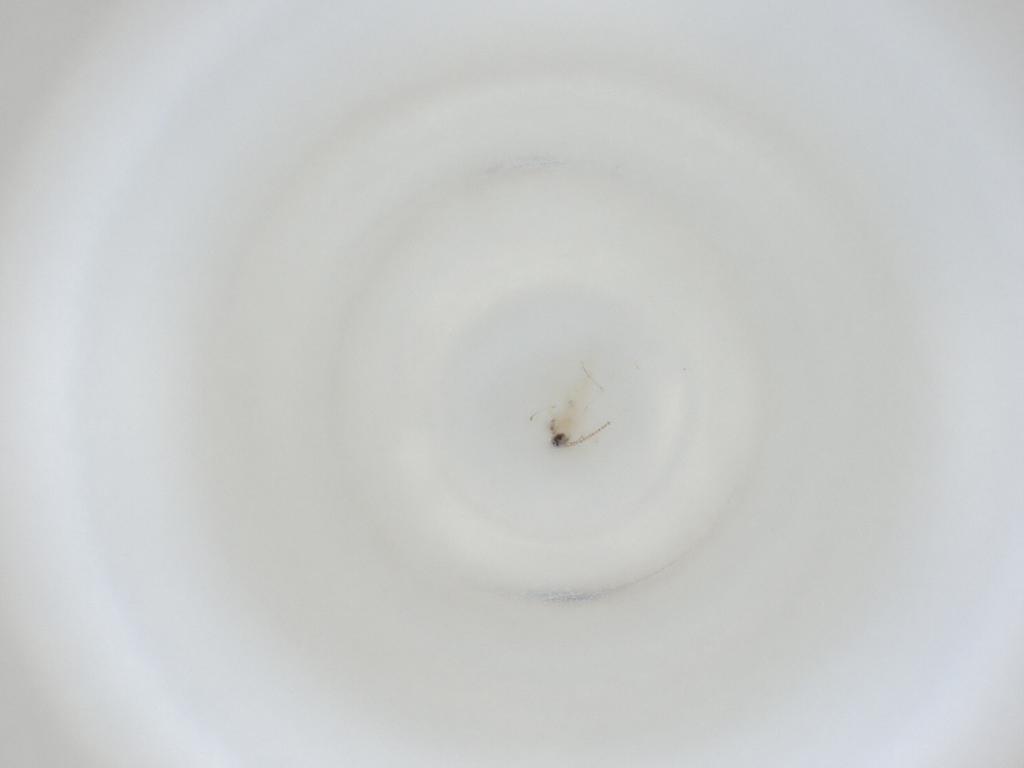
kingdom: Animalia
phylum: Arthropoda
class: Insecta
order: Diptera
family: Cecidomyiidae
